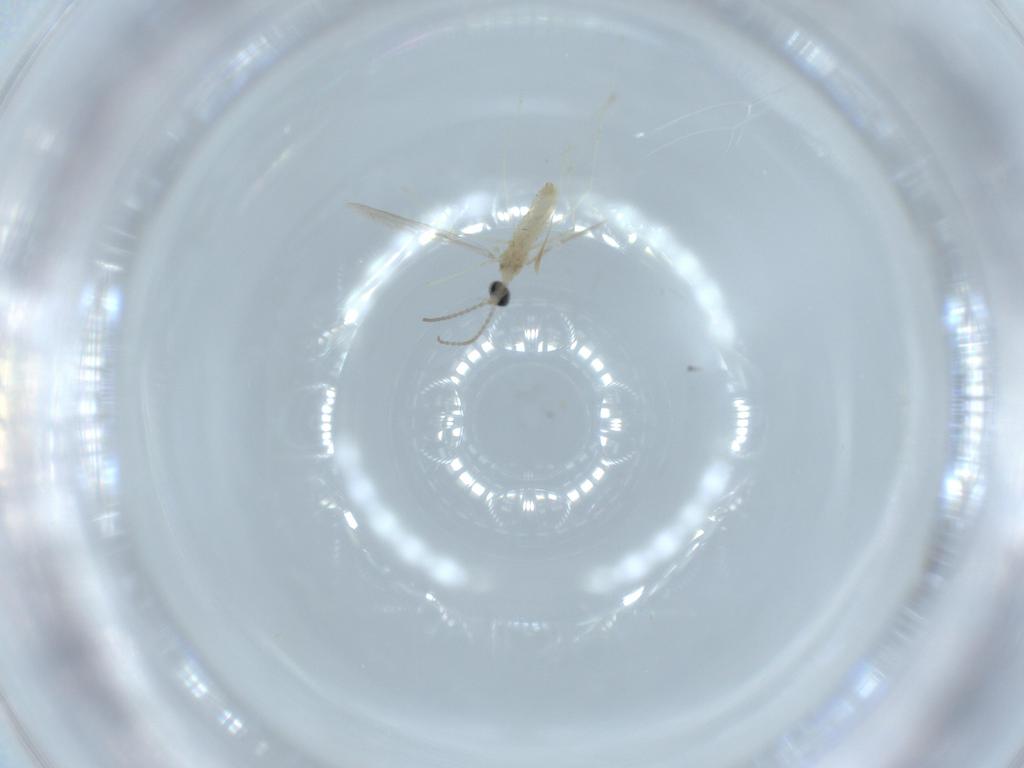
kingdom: Animalia
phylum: Arthropoda
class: Insecta
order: Diptera
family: Cecidomyiidae
